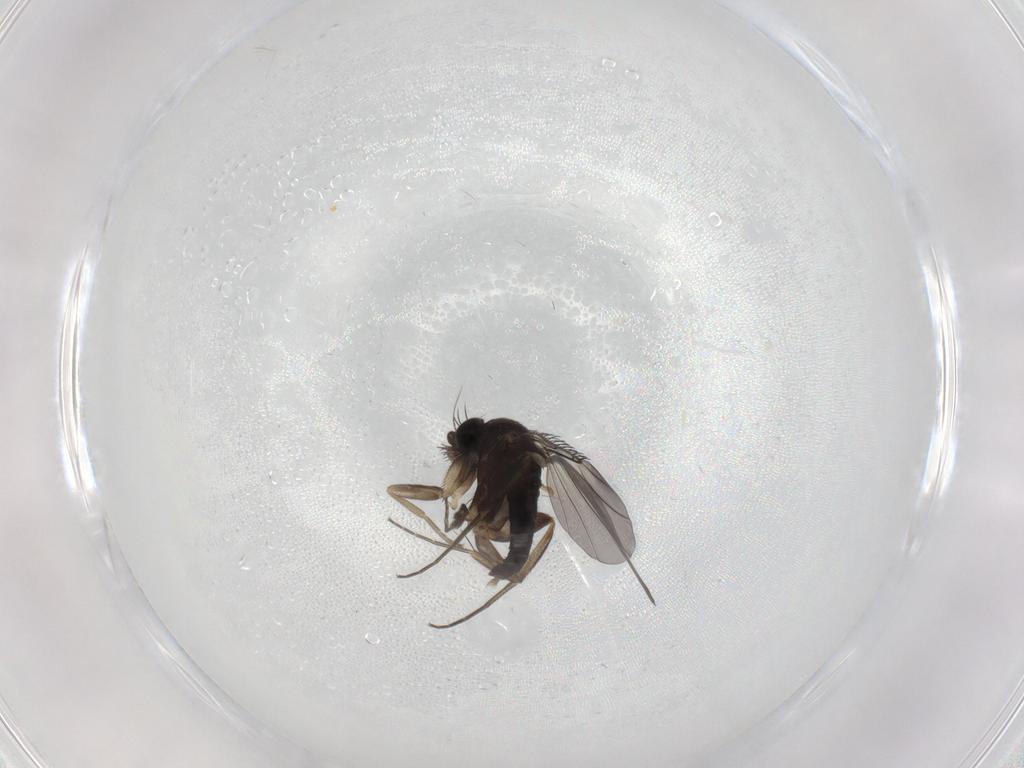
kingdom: Animalia
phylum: Arthropoda
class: Insecta
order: Diptera
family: Phoridae
